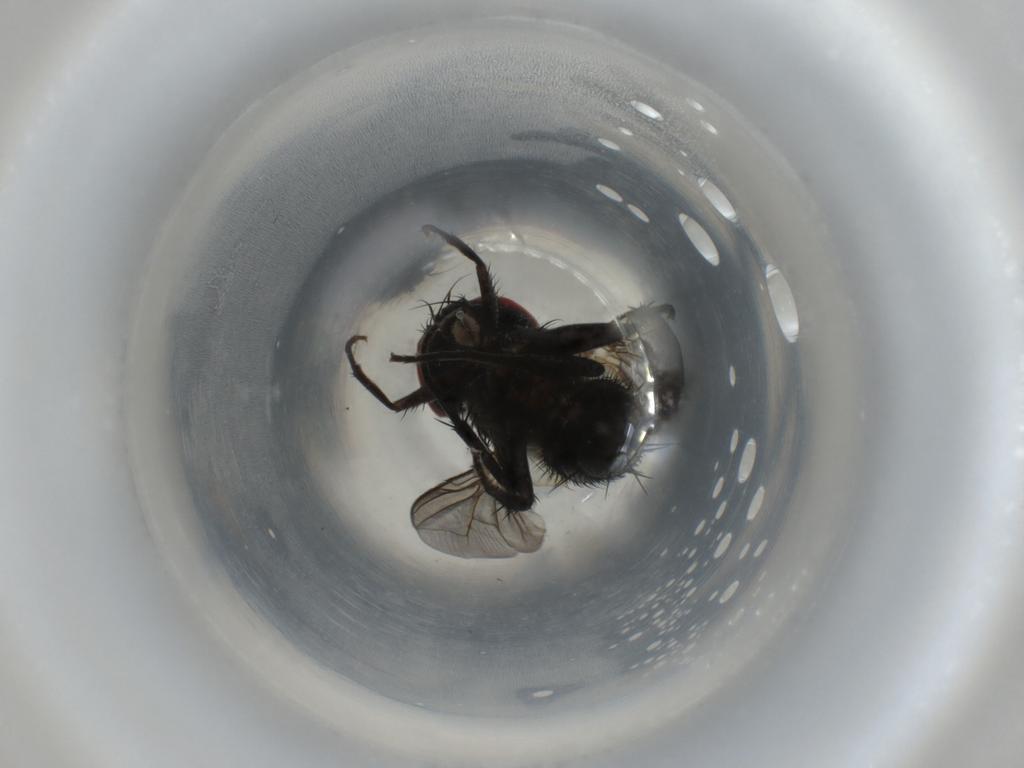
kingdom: Animalia
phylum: Arthropoda
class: Insecta
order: Diptera
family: Sarcophagidae
